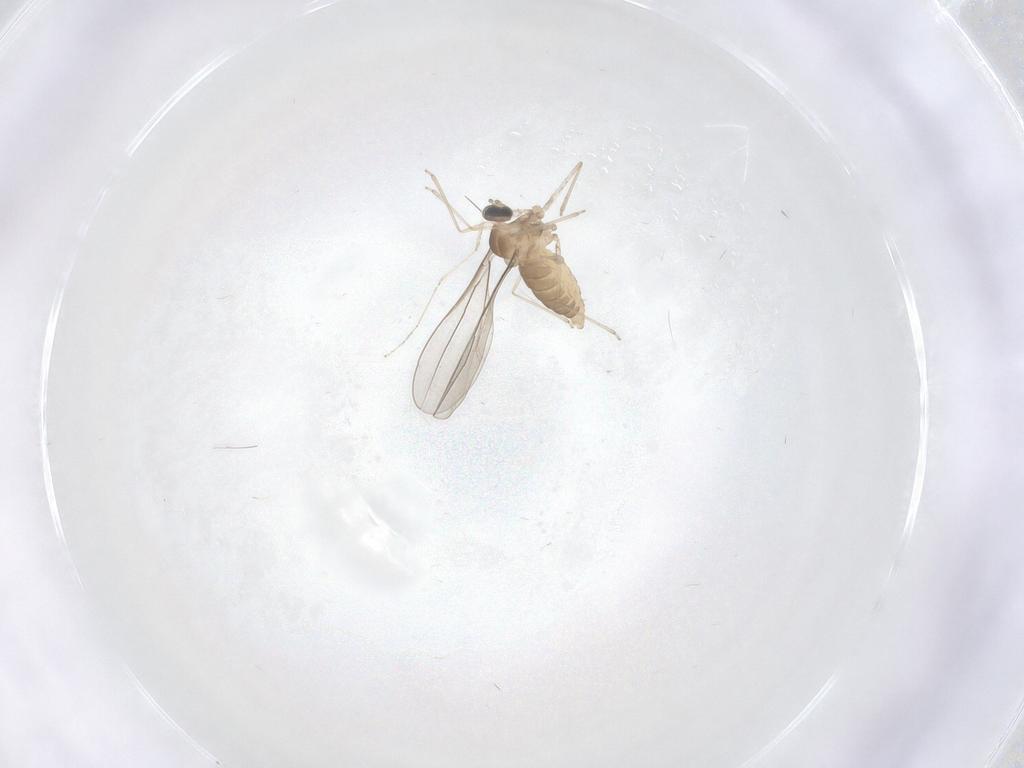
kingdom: Animalia
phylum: Arthropoda
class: Insecta
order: Diptera
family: Cecidomyiidae
